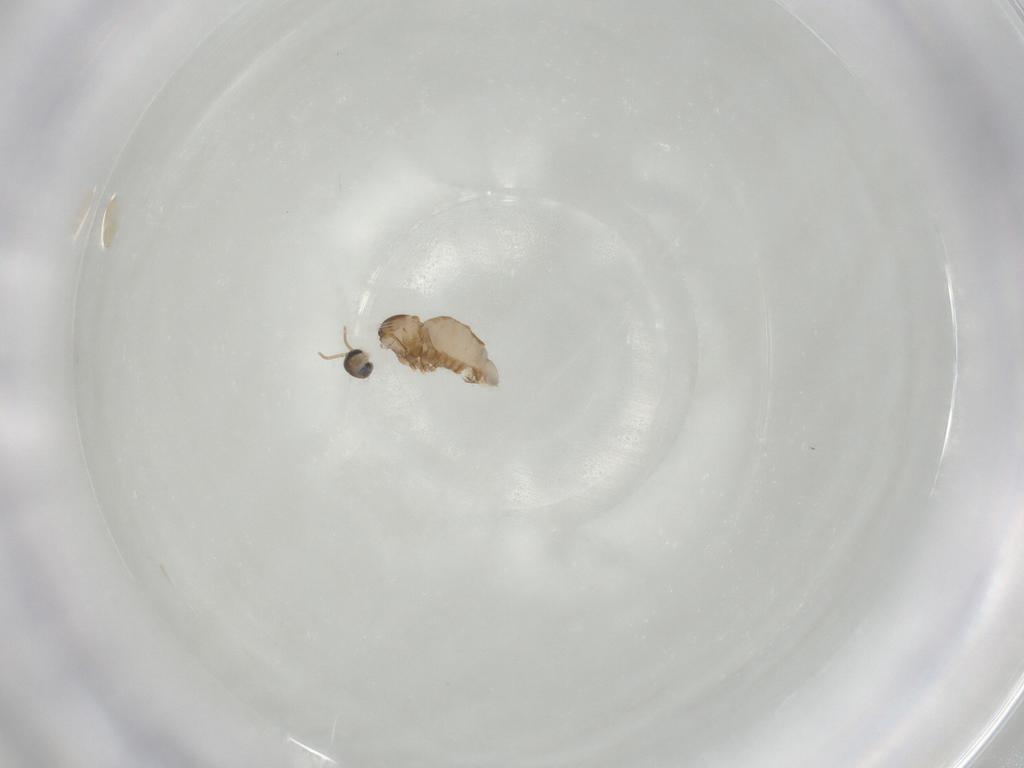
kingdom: Animalia
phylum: Arthropoda
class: Insecta
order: Diptera
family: Cecidomyiidae
